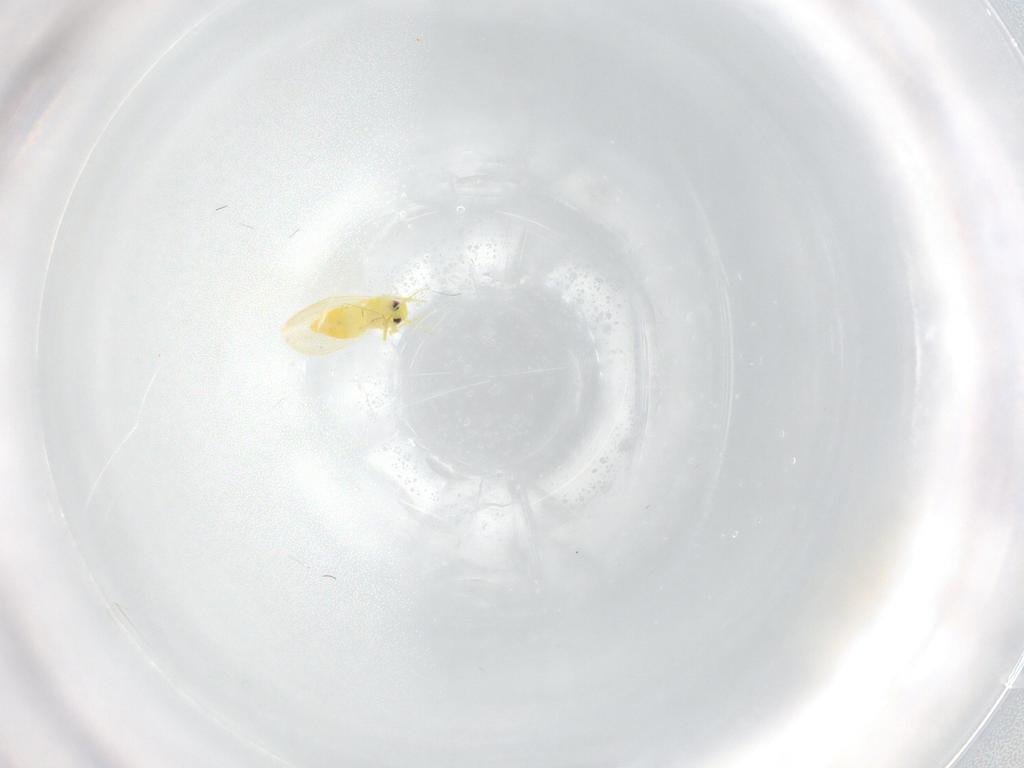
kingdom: Animalia
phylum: Arthropoda
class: Insecta
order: Hemiptera
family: Aleyrodidae
